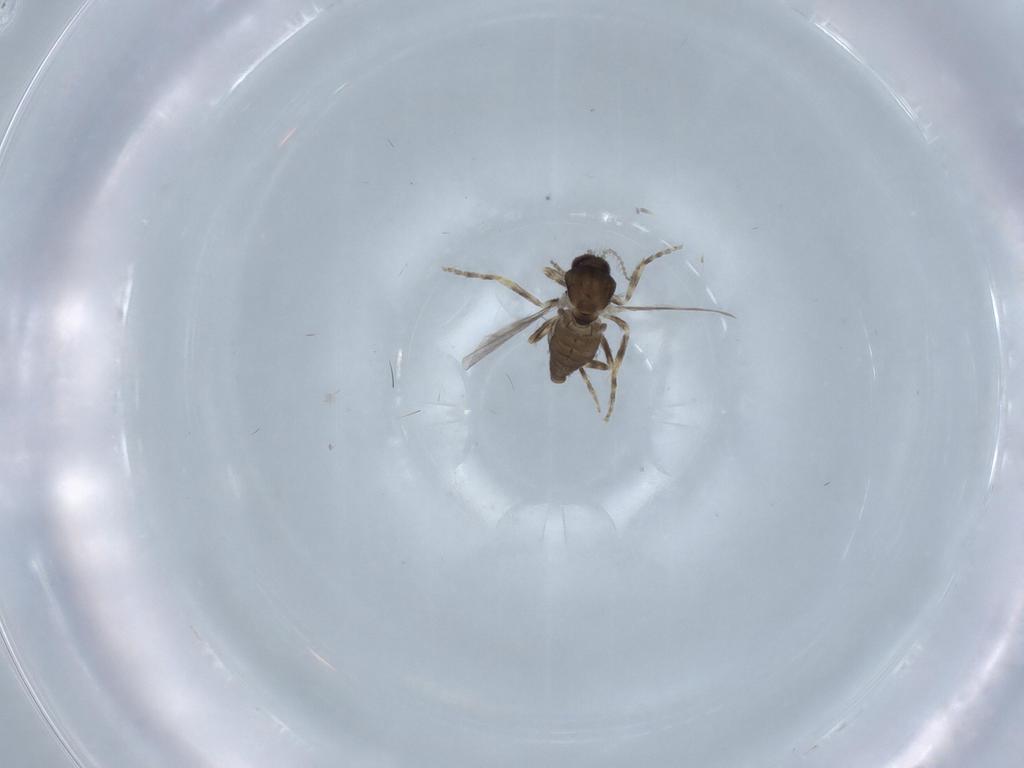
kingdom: Animalia
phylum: Arthropoda
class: Insecta
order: Diptera
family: Ceratopogonidae
